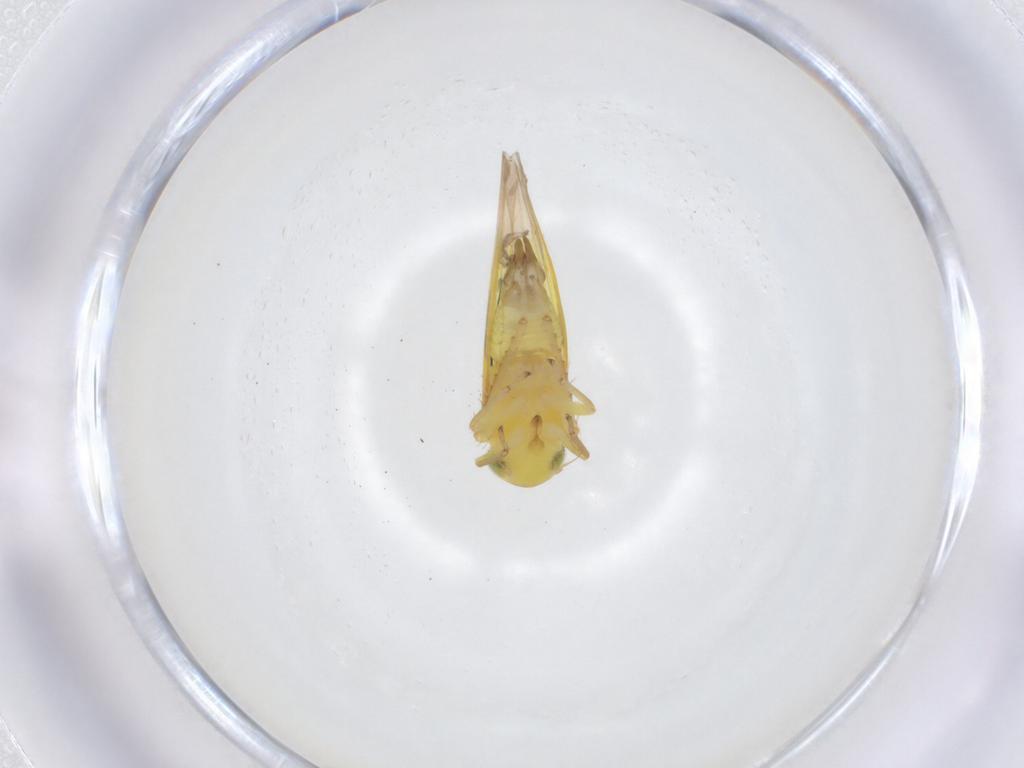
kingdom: Animalia
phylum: Arthropoda
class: Insecta
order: Hemiptera
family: Cicadellidae
